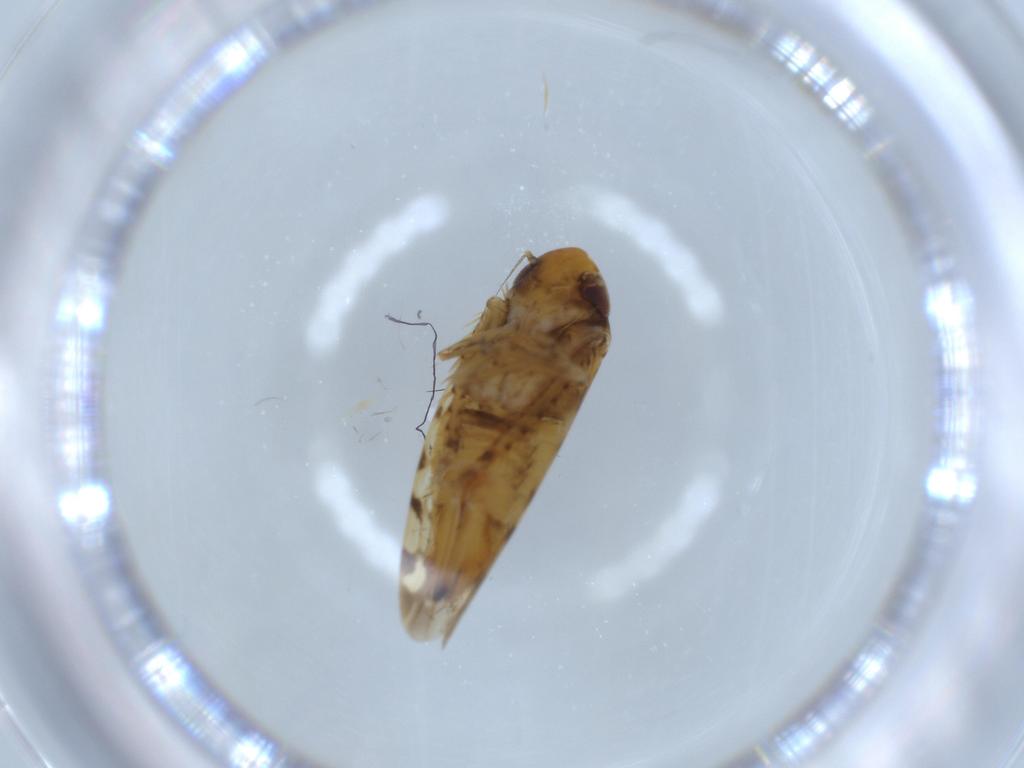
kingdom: Animalia
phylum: Arthropoda
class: Insecta
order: Hemiptera
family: Cicadellidae
